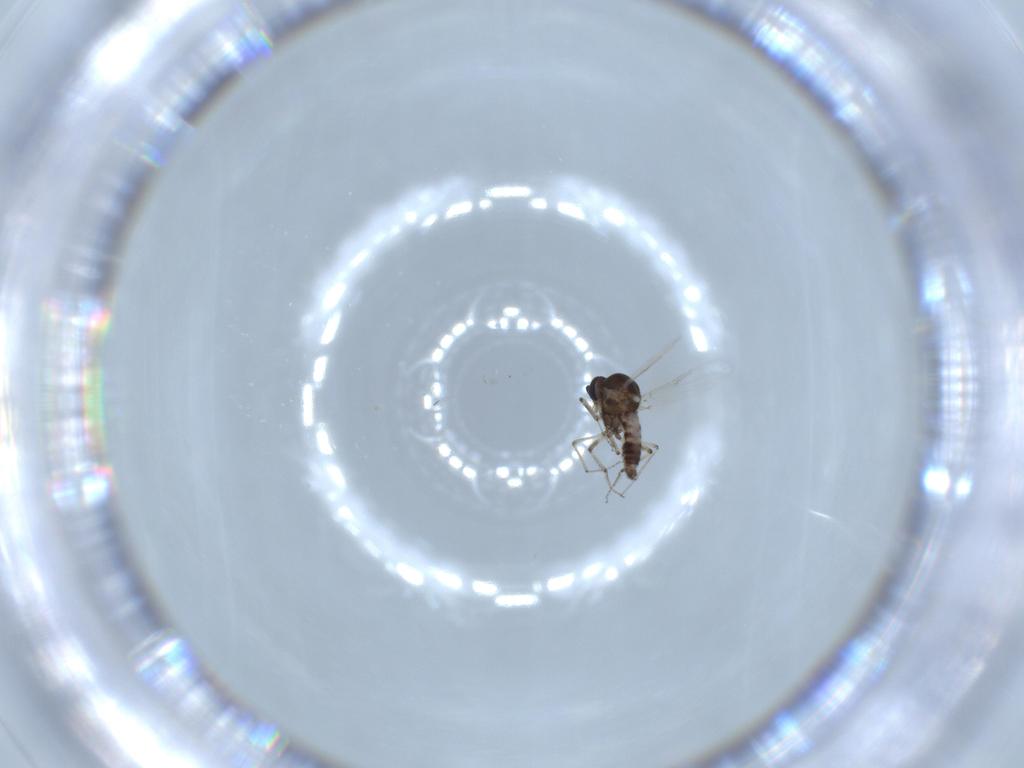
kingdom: Animalia
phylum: Arthropoda
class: Insecta
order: Diptera
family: Ceratopogonidae
